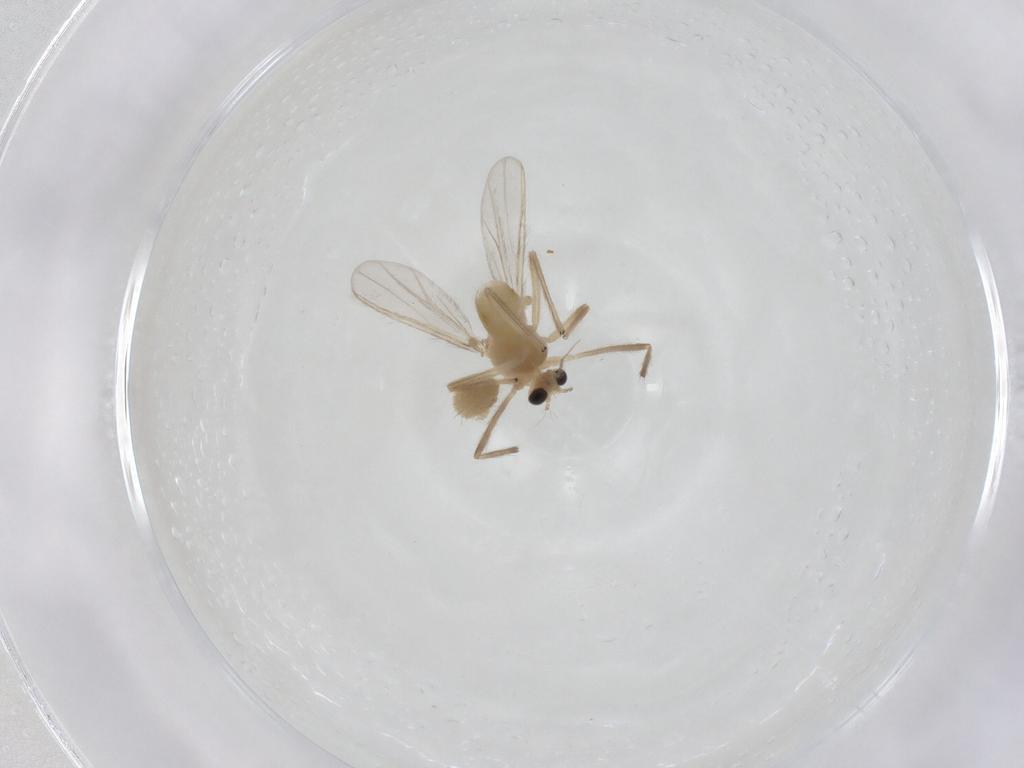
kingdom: Animalia
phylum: Arthropoda
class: Insecta
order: Diptera
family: Chironomidae
